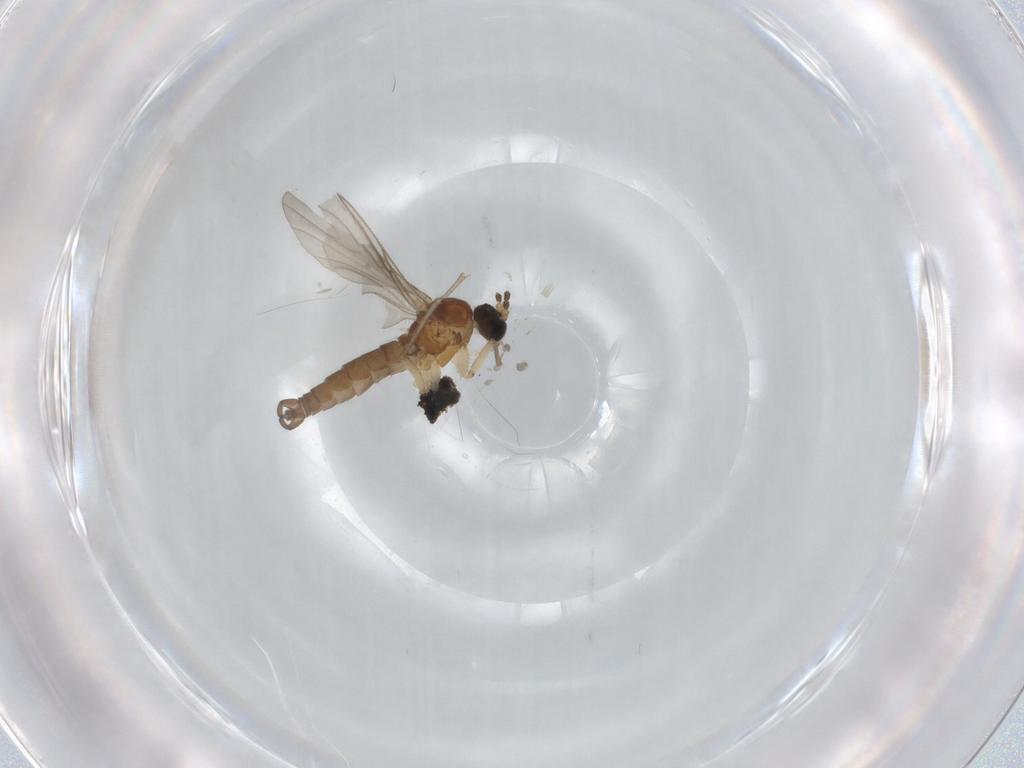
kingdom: Animalia
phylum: Arthropoda
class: Insecta
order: Diptera
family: Sciaridae
